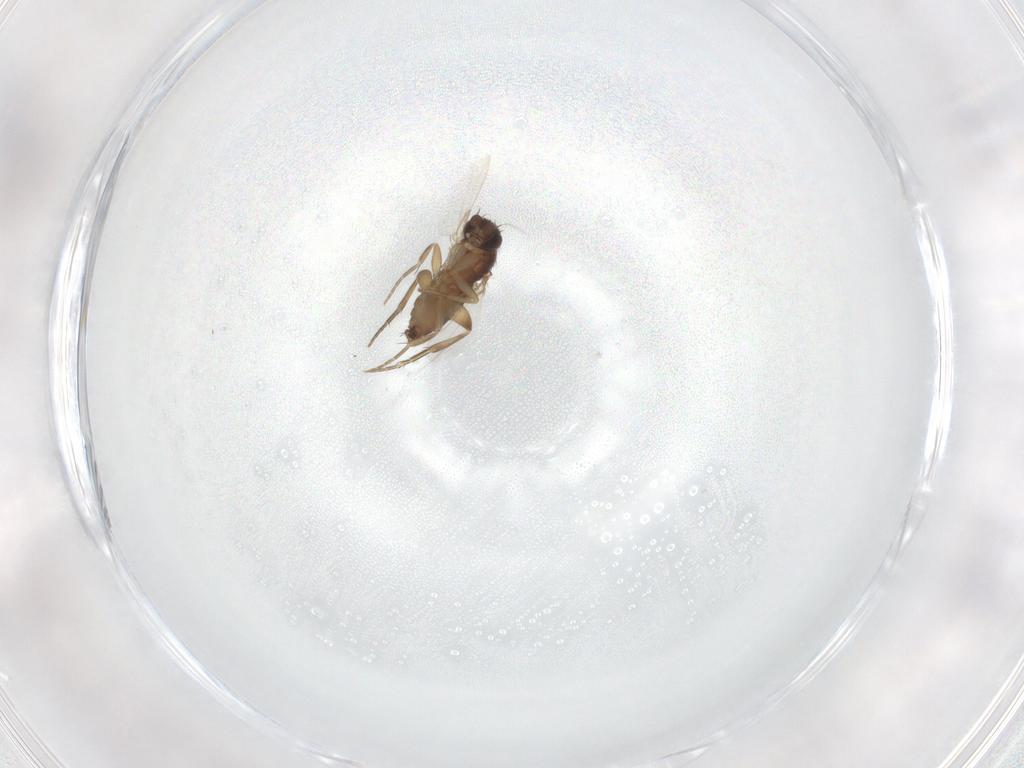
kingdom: Animalia
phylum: Arthropoda
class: Insecta
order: Diptera
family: Phoridae
